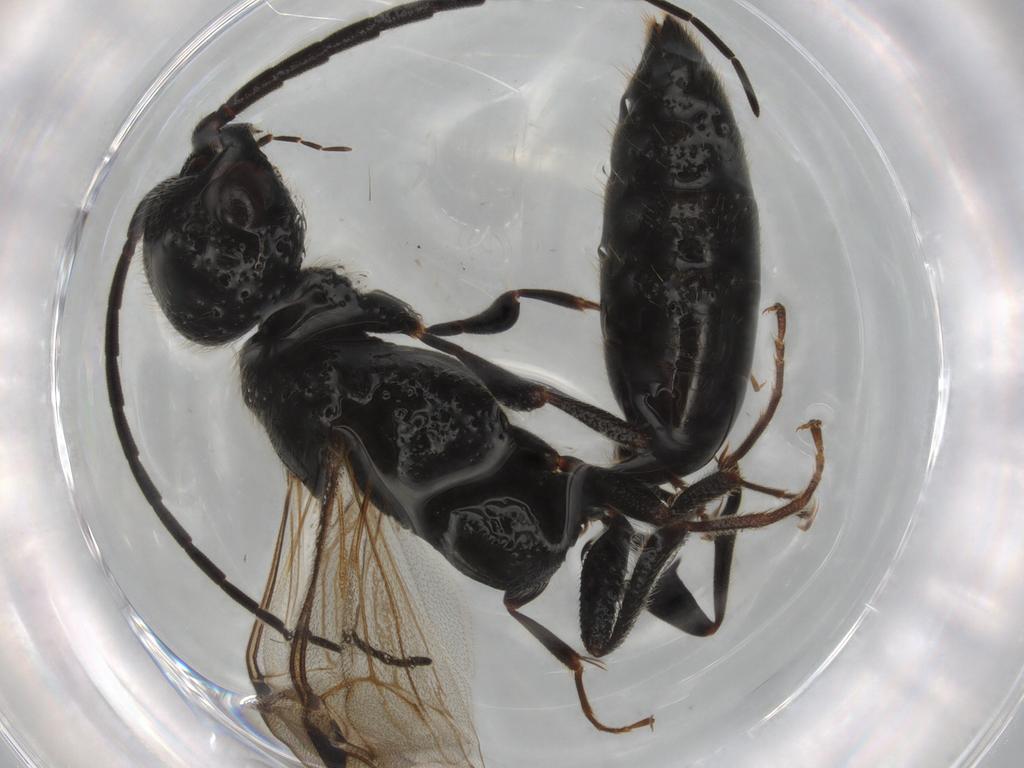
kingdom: Animalia
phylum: Arthropoda
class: Insecta
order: Hymenoptera
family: Bethylidae
